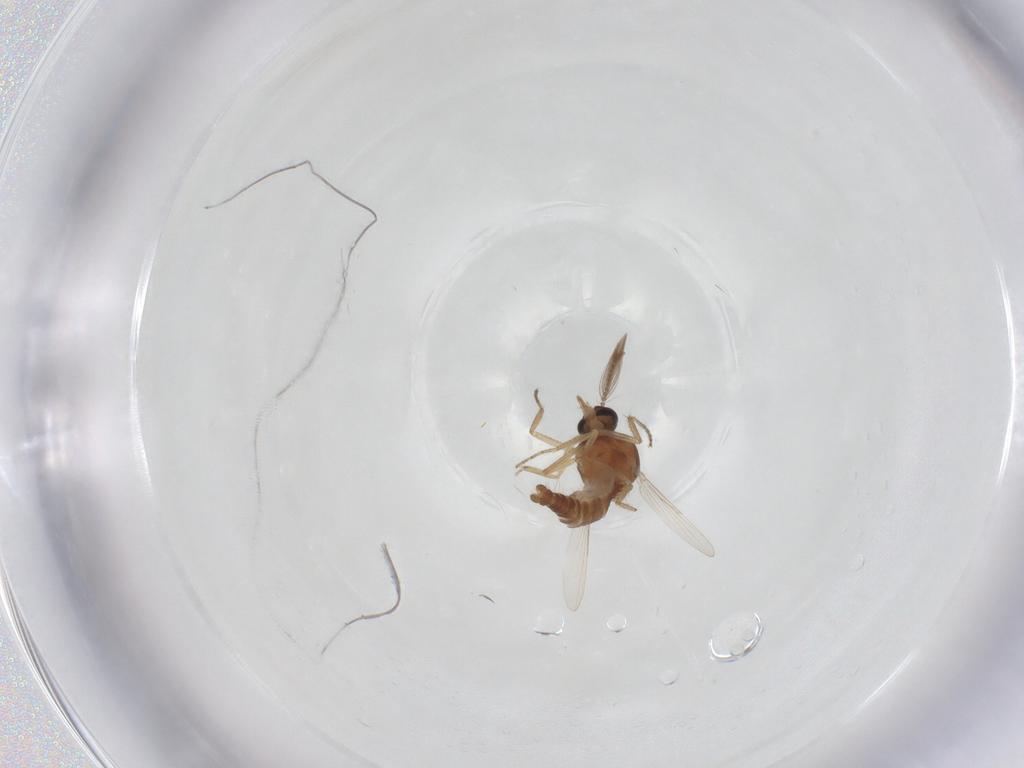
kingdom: Animalia
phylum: Arthropoda
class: Insecta
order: Diptera
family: Ceratopogonidae
